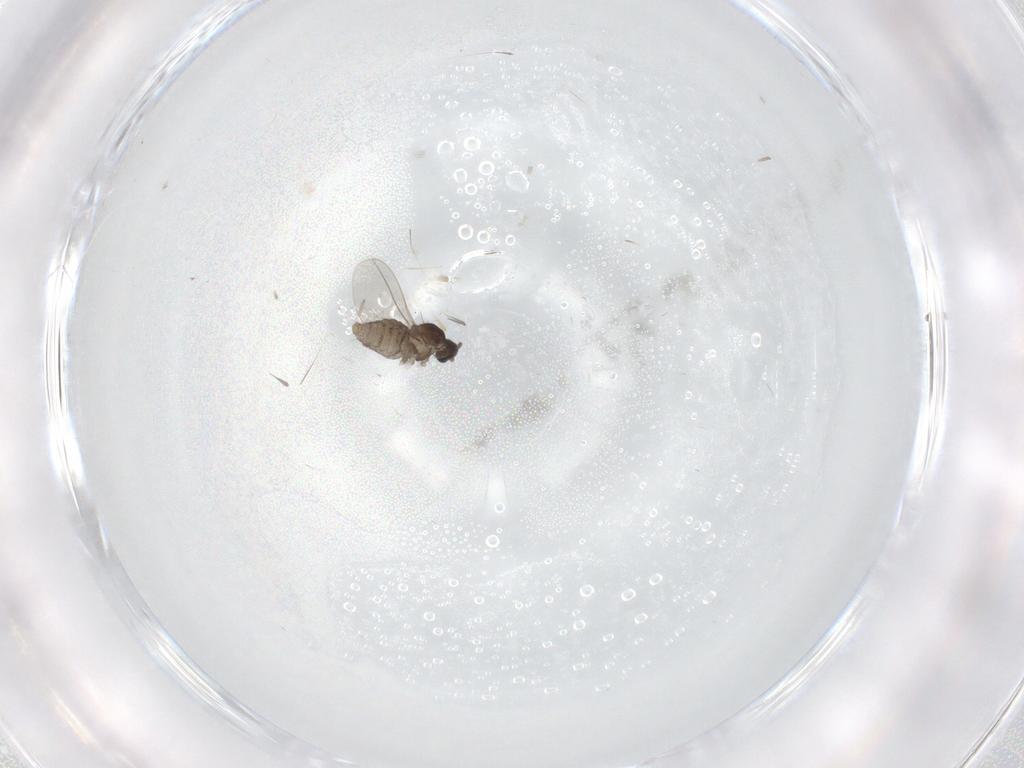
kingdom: Animalia
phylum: Arthropoda
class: Insecta
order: Diptera
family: Cecidomyiidae
